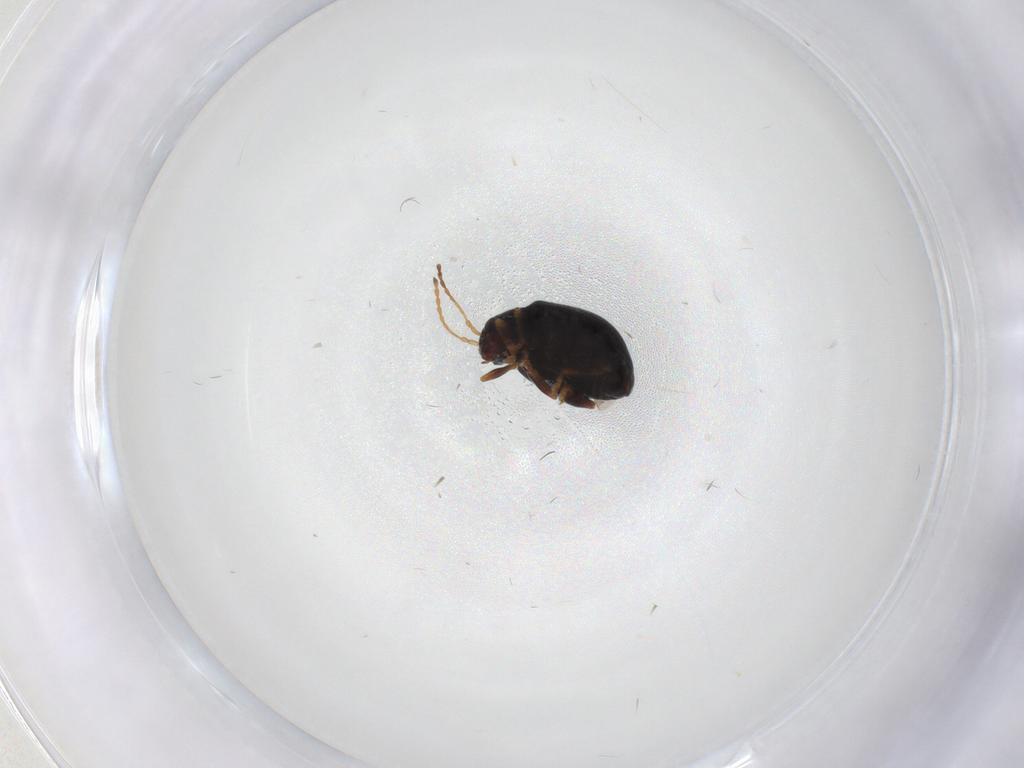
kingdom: Animalia
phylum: Arthropoda
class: Insecta
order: Coleoptera
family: Chrysomelidae
